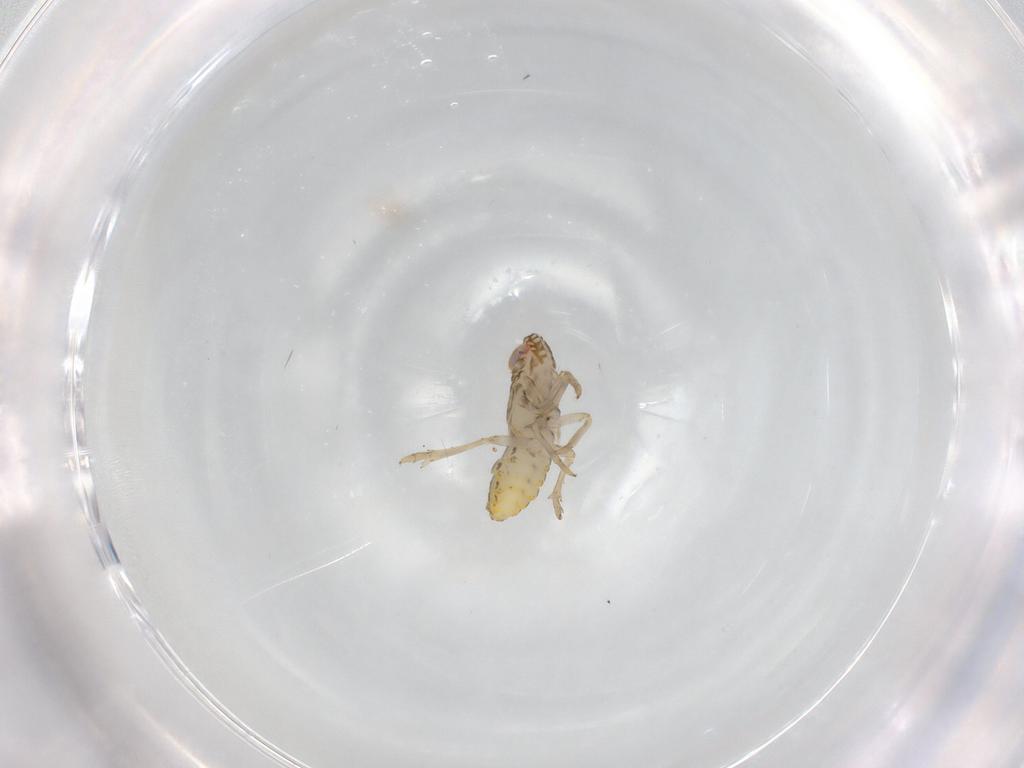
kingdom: Animalia
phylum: Arthropoda
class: Insecta
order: Hemiptera
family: Delphacidae
